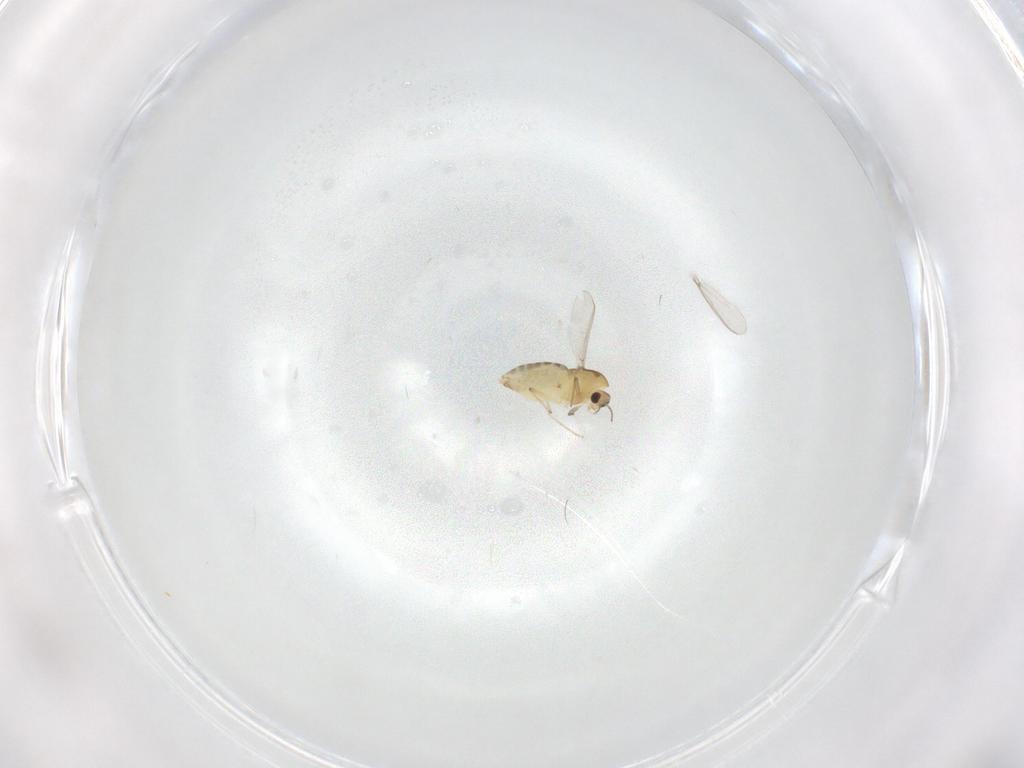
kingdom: Animalia
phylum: Arthropoda
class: Insecta
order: Diptera
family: Chironomidae
